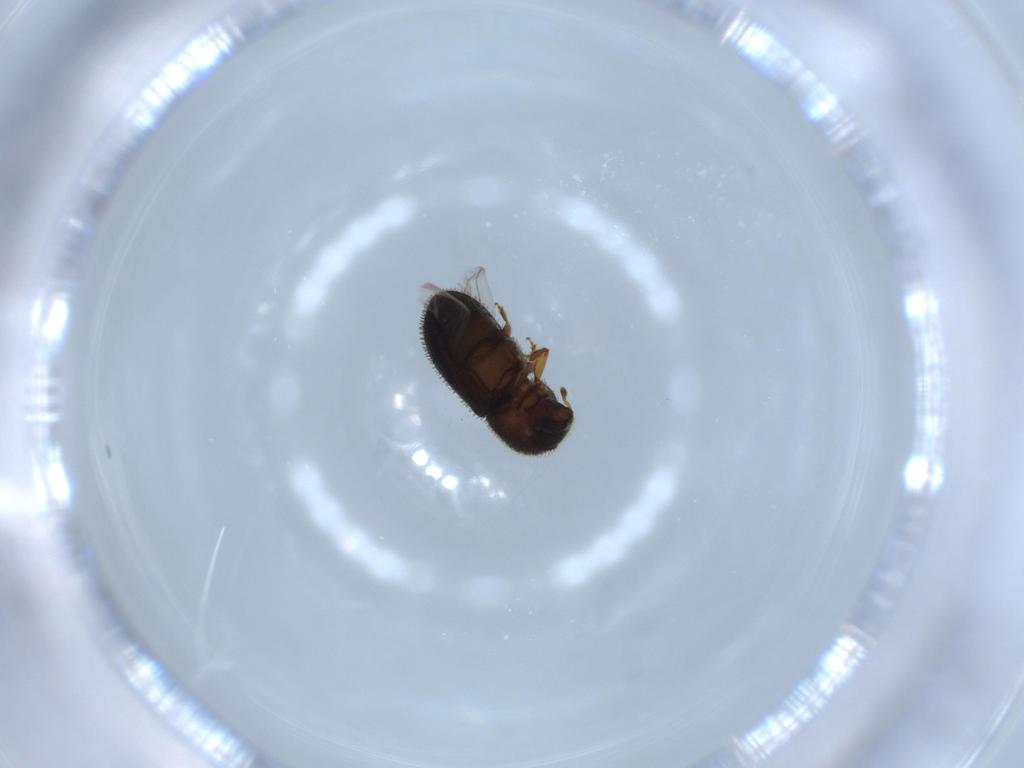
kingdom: Animalia
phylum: Arthropoda
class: Insecta
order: Coleoptera
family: Curculionidae
